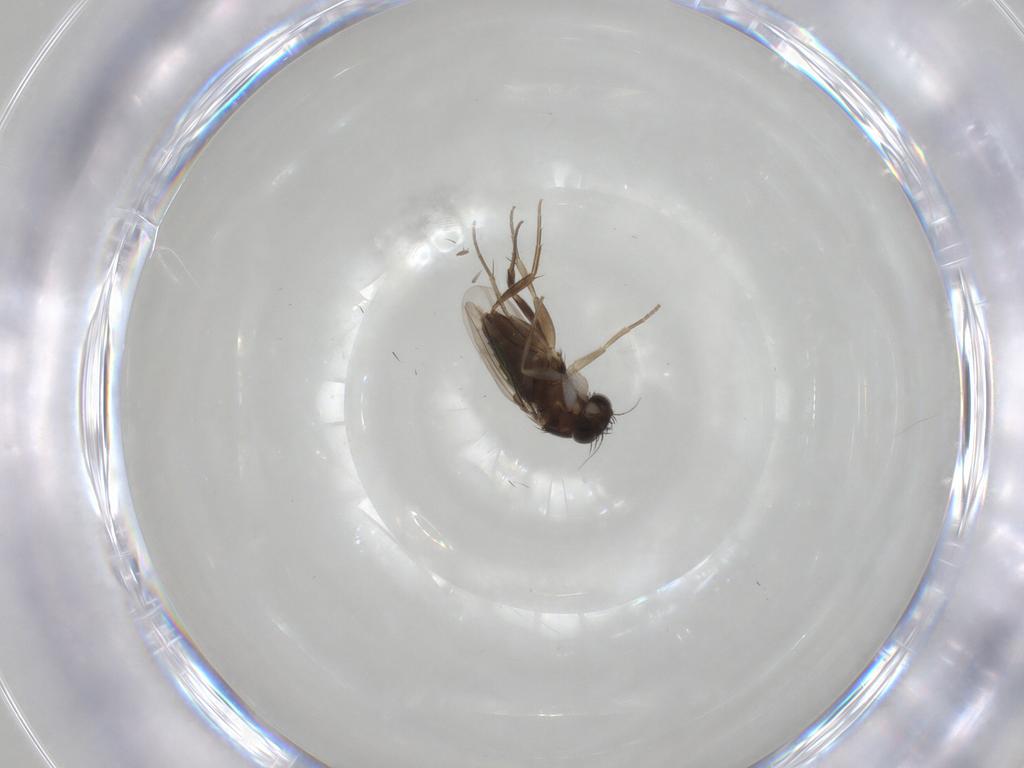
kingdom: Animalia
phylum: Arthropoda
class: Insecta
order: Diptera
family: Phoridae
